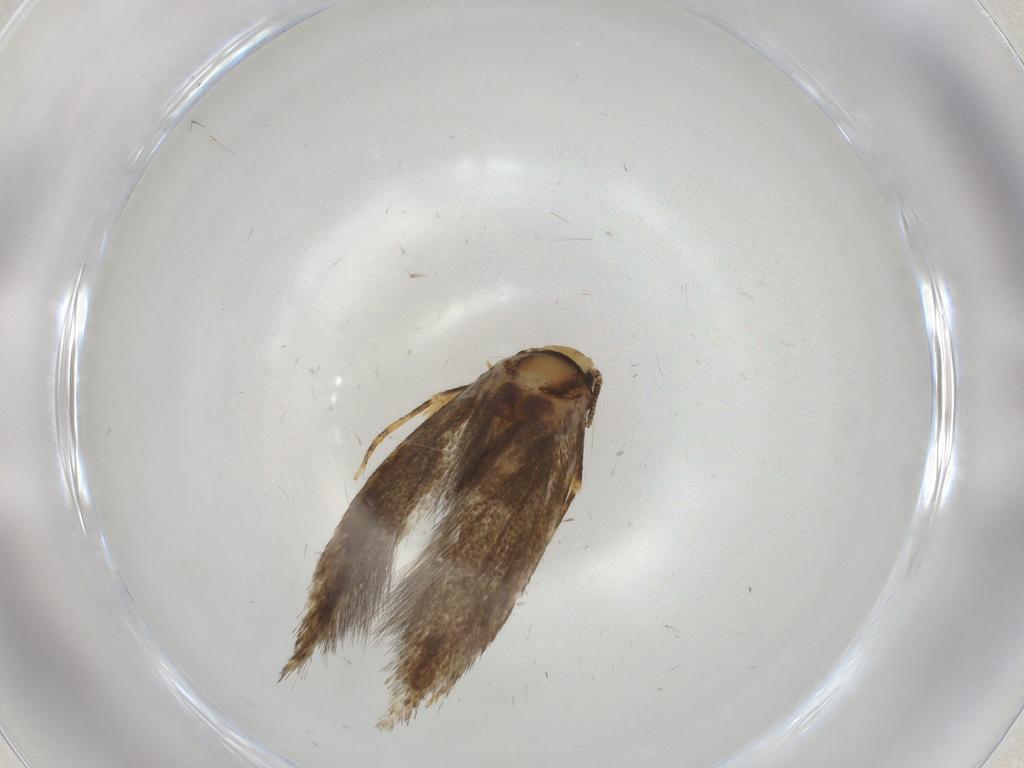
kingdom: Animalia
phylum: Arthropoda
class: Insecta
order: Lepidoptera
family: Tineidae
